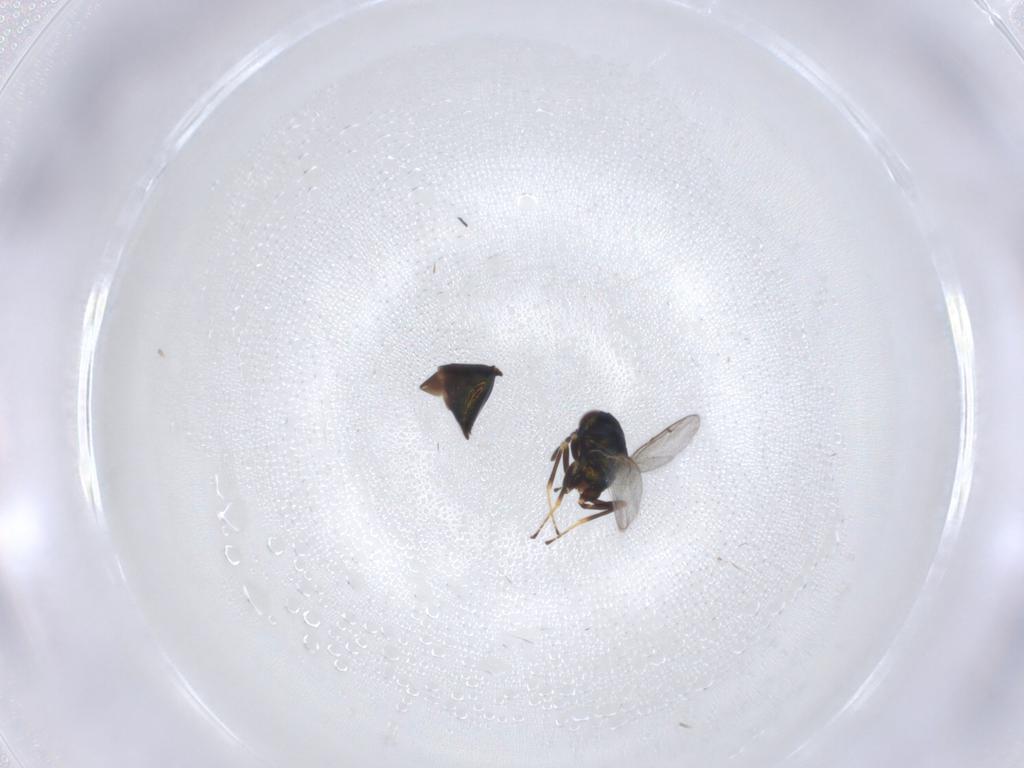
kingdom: Animalia
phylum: Arthropoda
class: Insecta
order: Hymenoptera
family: Pteromalidae
